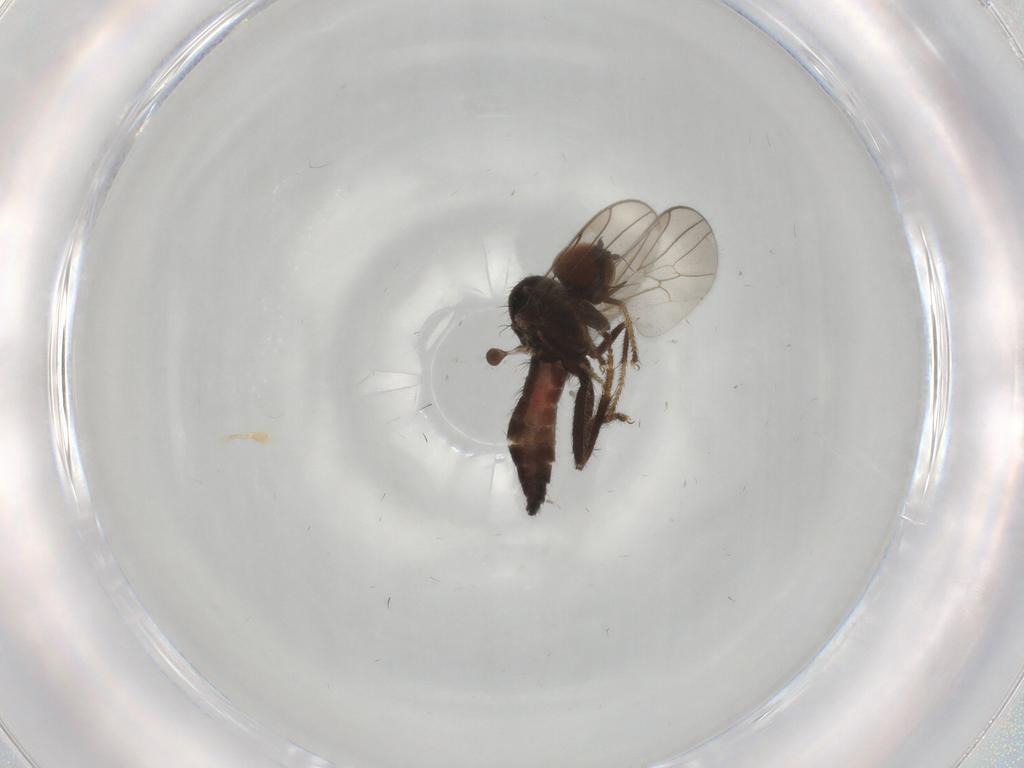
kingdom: Animalia
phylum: Arthropoda
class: Insecta
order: Diptera
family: Hybotidae
